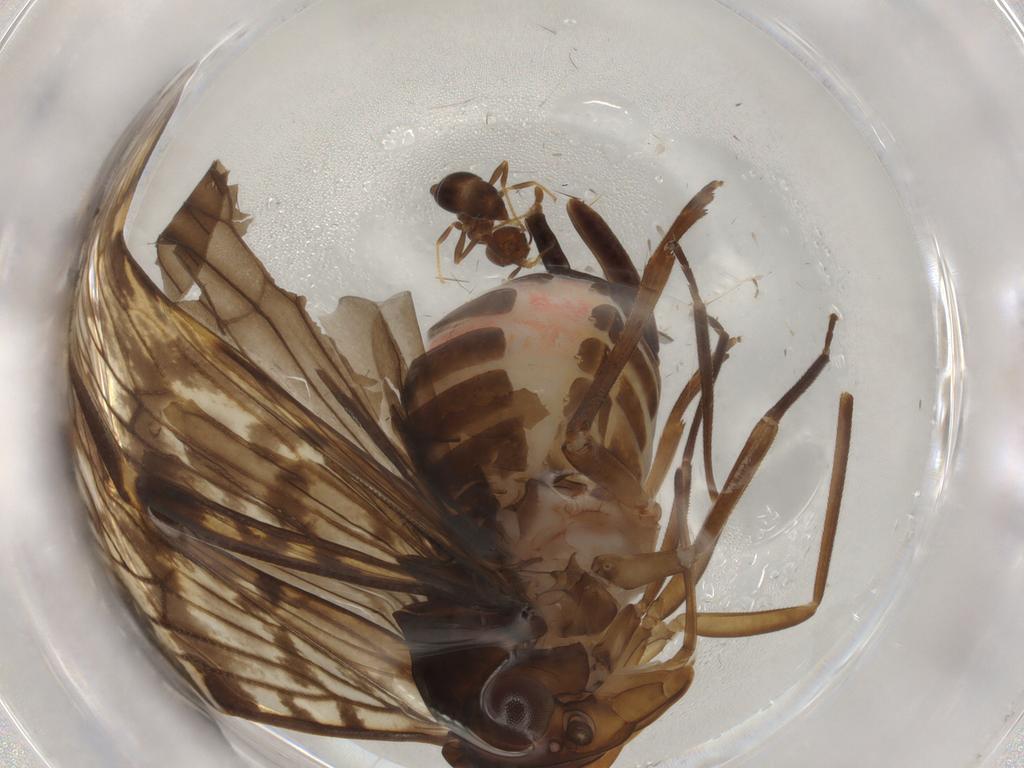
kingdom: Animalia
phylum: Arthropoda
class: Insecta
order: Lepidoptera
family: Erebidae
